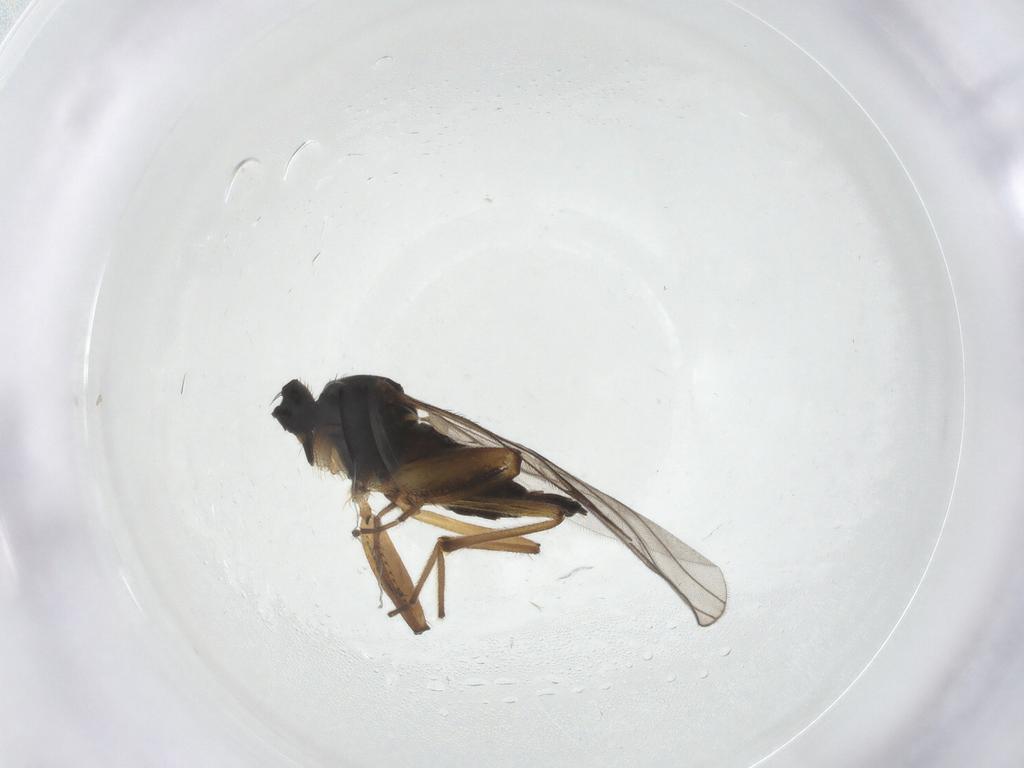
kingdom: Animalia
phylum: Arthropoda
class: Insecta
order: Diptera
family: Hybotidae
